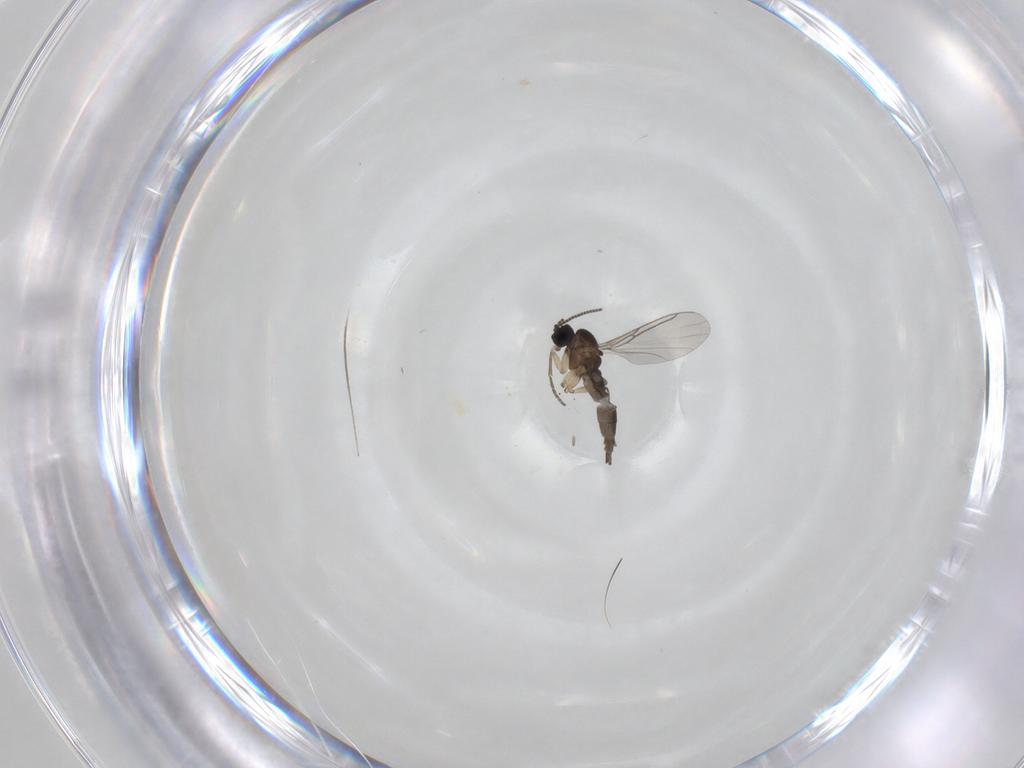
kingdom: Animalia
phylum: Arthropoda
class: Insecta
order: Diptera
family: Sciaridae
